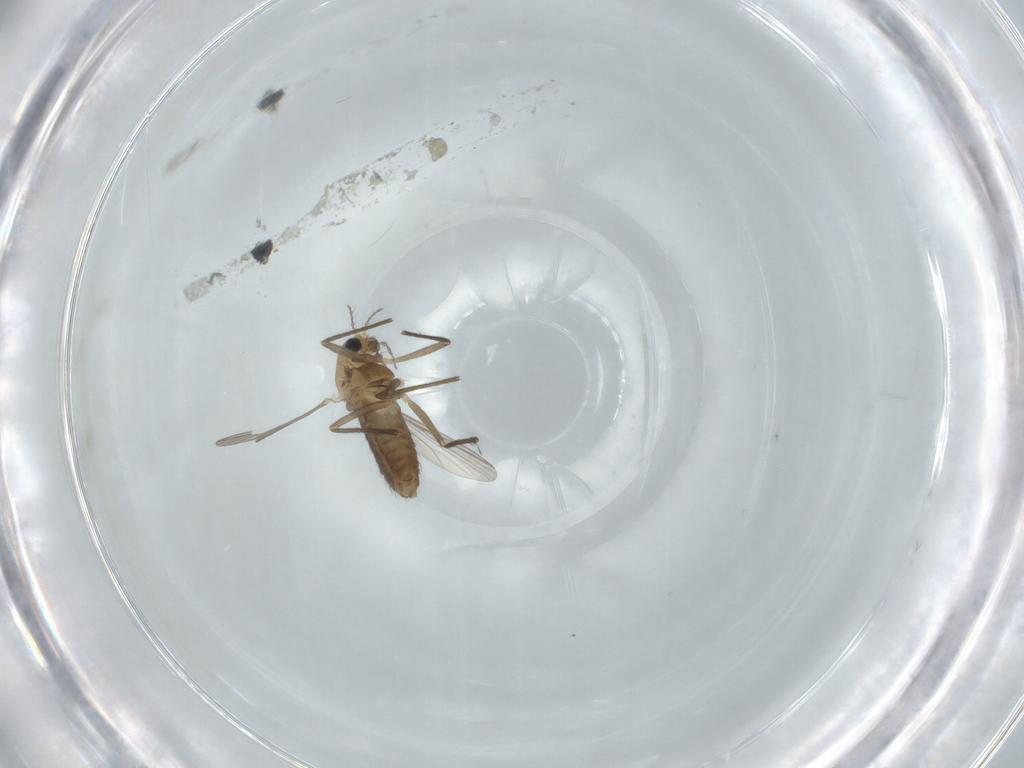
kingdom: Animalia
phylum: Arthropoda
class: Insecta
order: Diptera
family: Chironomidae
